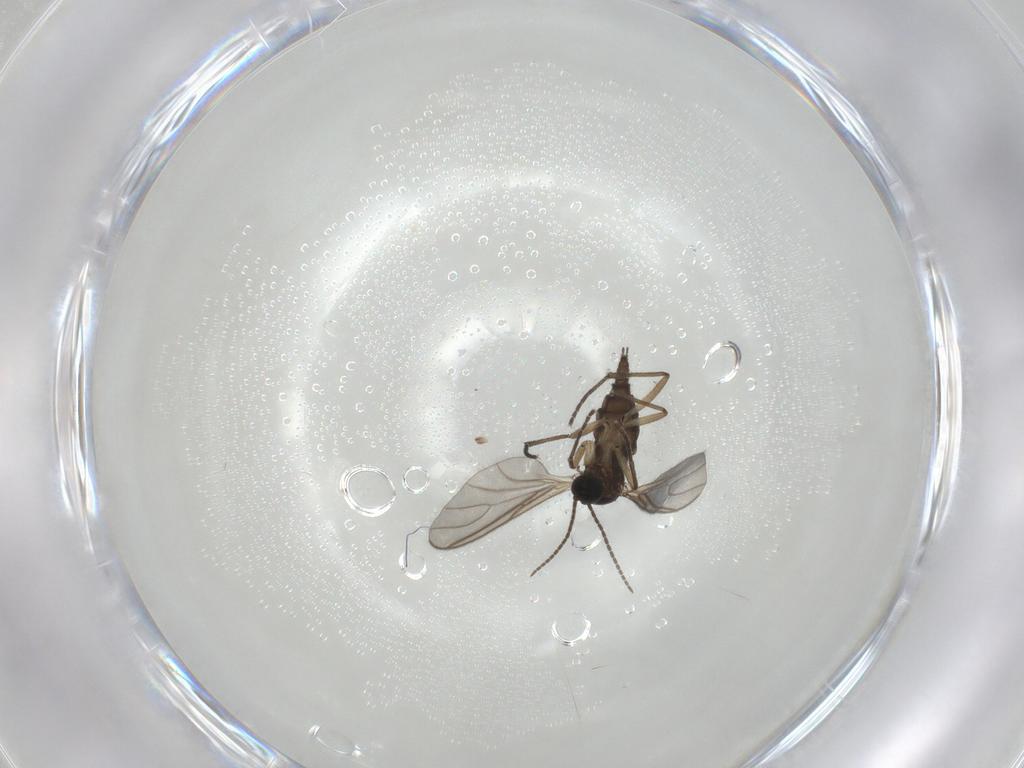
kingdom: Animalia
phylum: Arthropoda
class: Insecta
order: Diptera
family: Sciaridae
